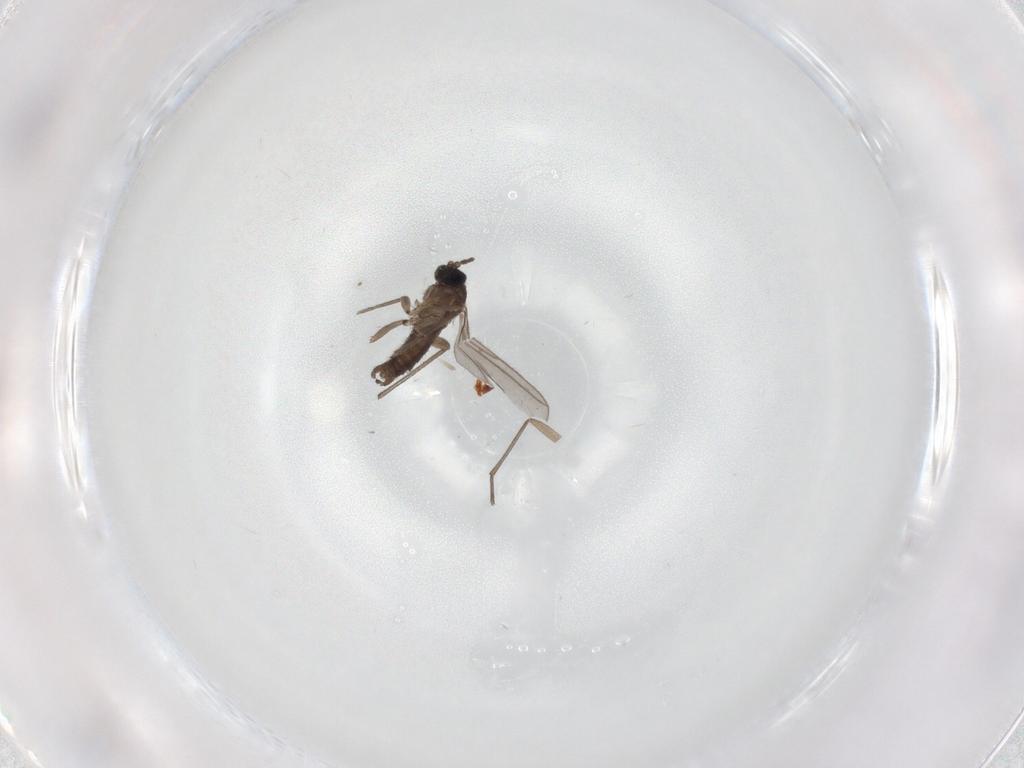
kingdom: Animalia
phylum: Arthropoda
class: Insecta
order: Diptera
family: Sciaridae
